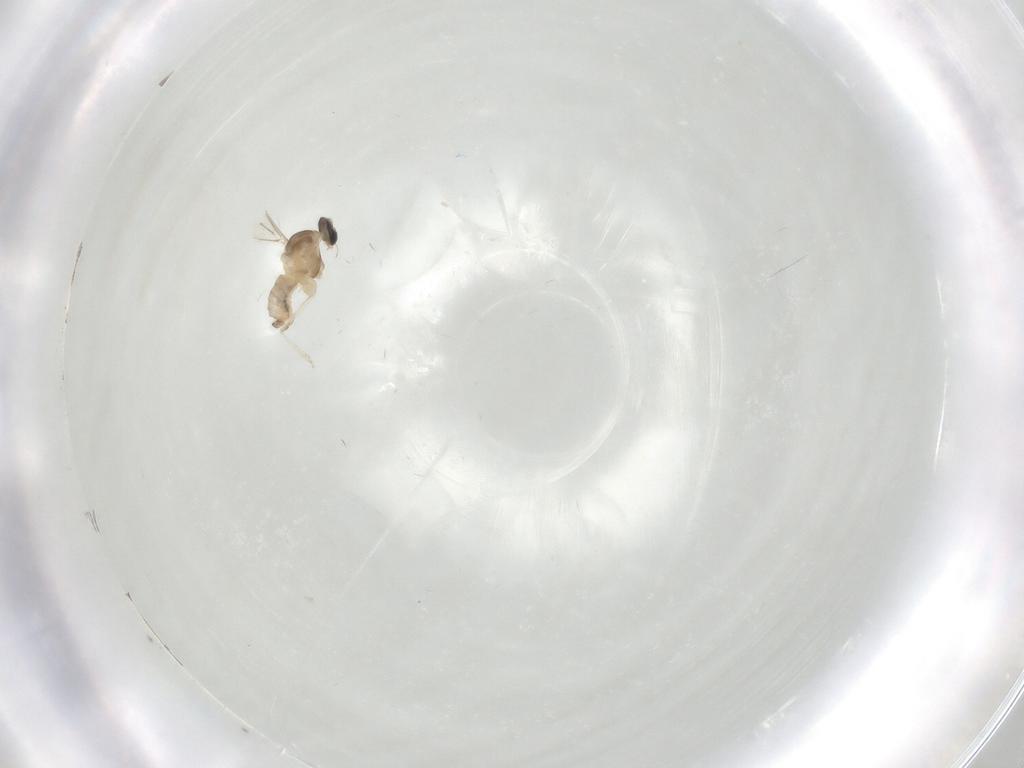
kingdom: Animalia
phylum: Arthropoda
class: Insecta
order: Diptera
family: Cecidomyiidae
